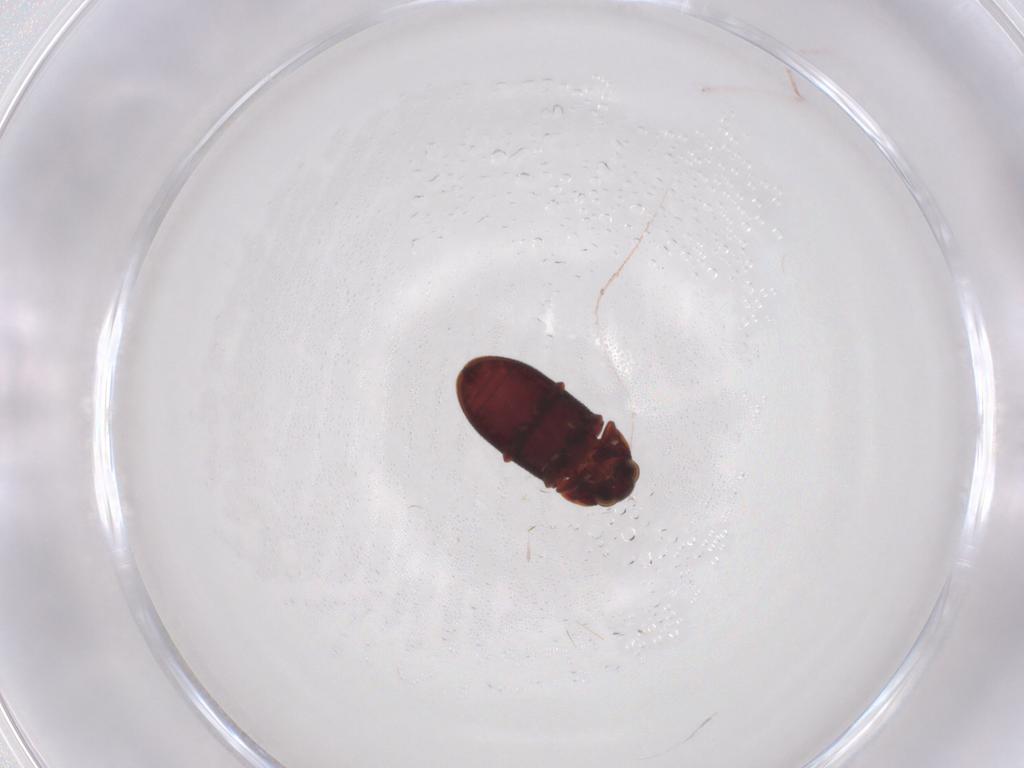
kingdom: Animalia
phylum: Arthropoda
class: Insecta
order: Coleoptera
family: Ptinidae
